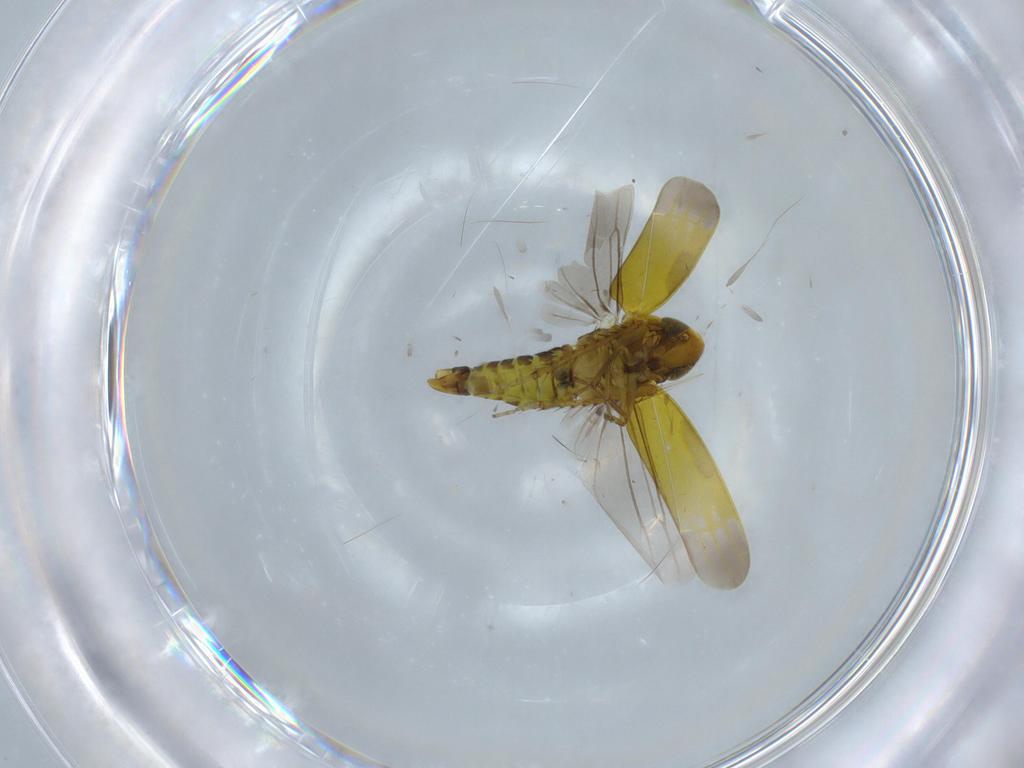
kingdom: Animalia
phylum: Arthropoda
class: Insecta
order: Hemiptera
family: Cicadellidae
